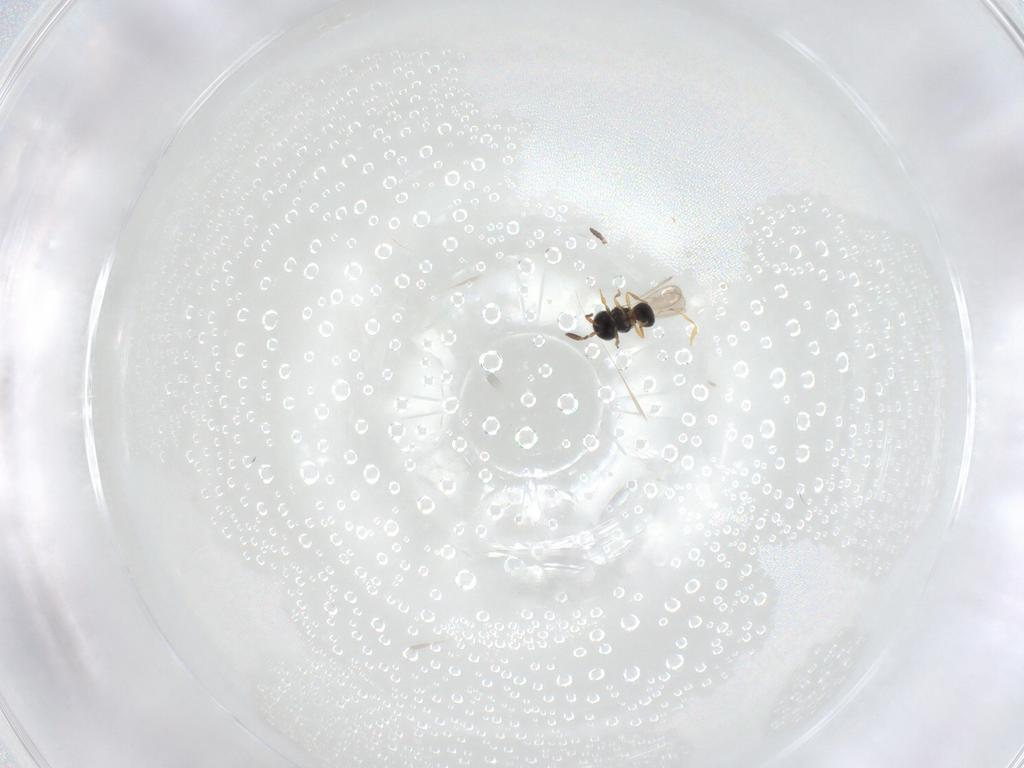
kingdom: Animalia
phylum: Arthropoda
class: Insecta
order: Hymenoptera
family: Scelionidae
